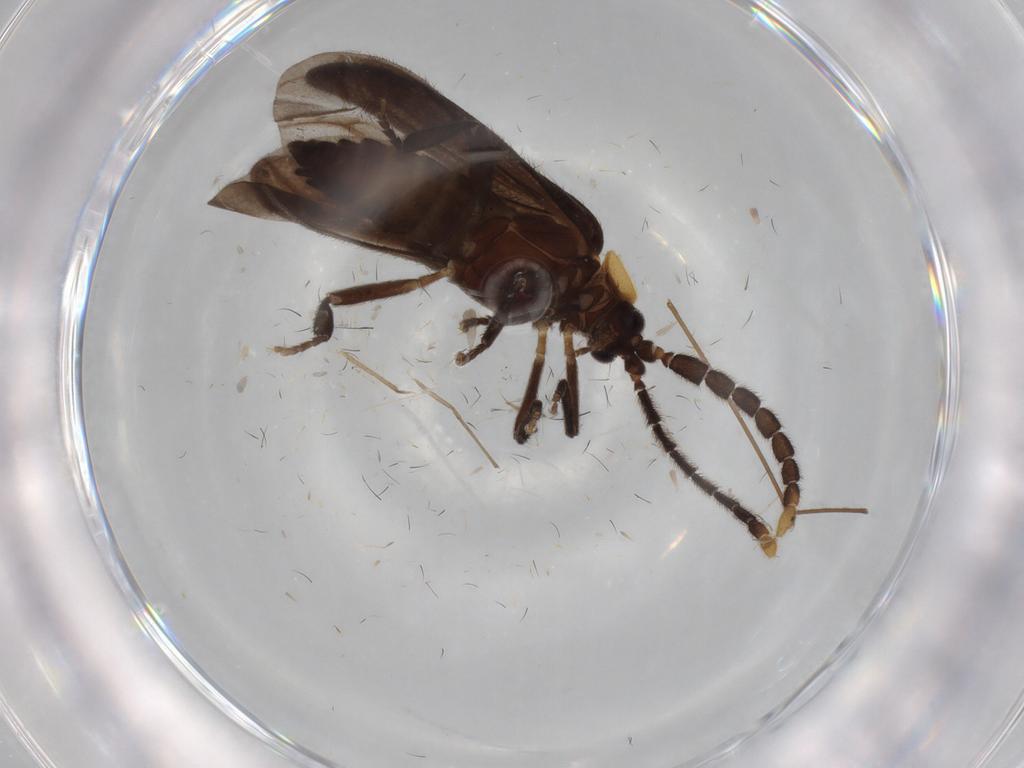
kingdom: Animalia
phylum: Arthropoda
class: Insecta
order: Coleoptera
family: Lycidae
